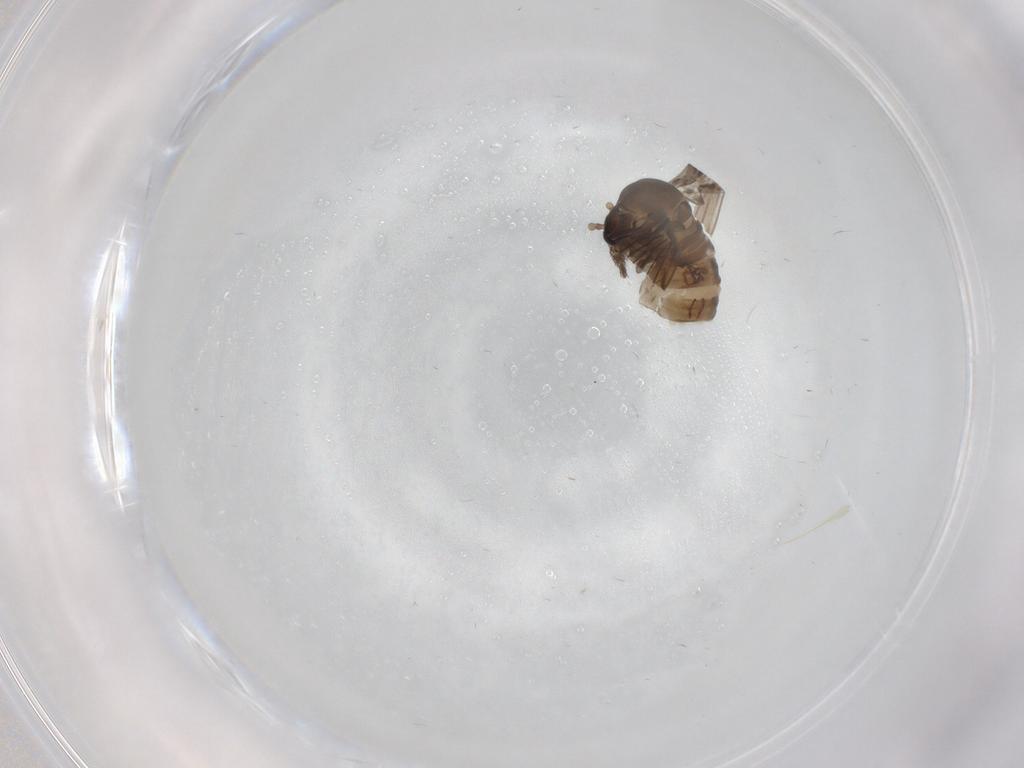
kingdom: Animalia
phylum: Arthropoda
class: Insecta
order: Diptera
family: Psychodidae
